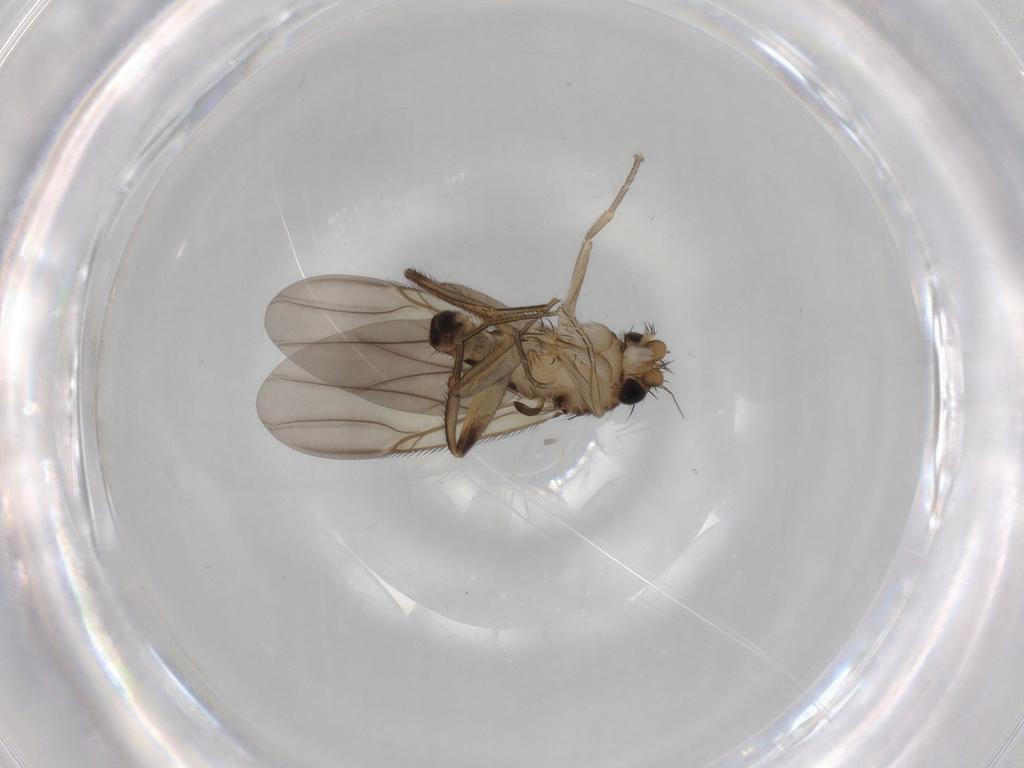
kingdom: Animalia
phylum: Arthropoda
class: Insecta
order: Diptera
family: Phoridae
